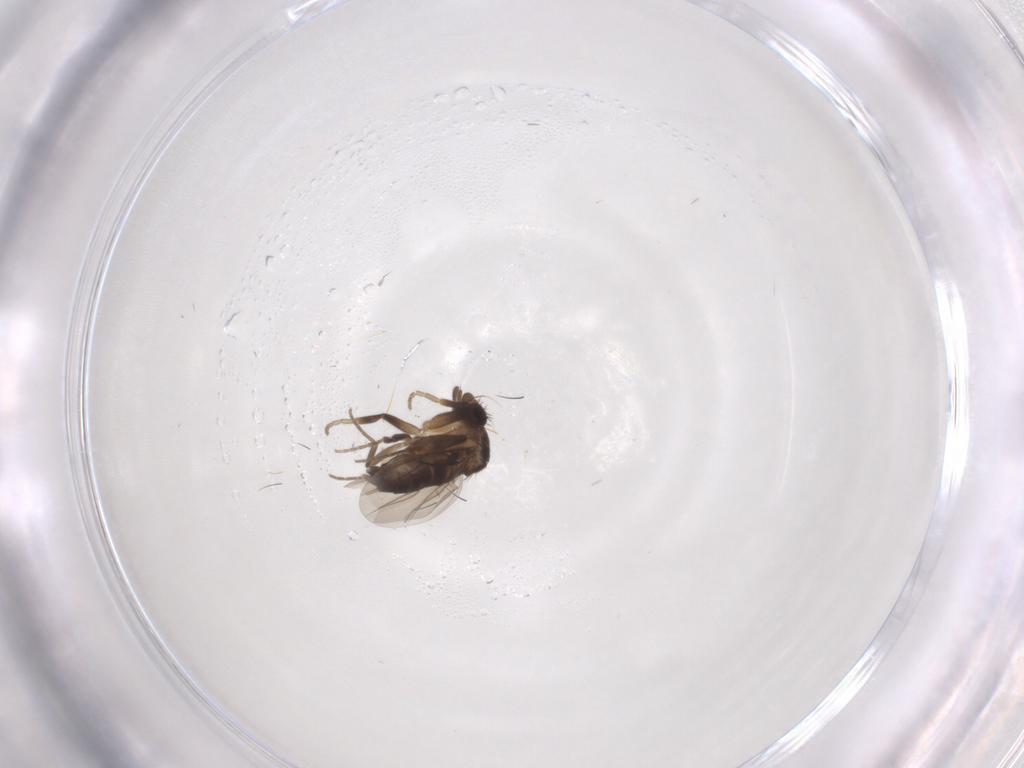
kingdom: Animalia
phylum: Arthropoda
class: Insecta
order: Diptera
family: Phoridae
